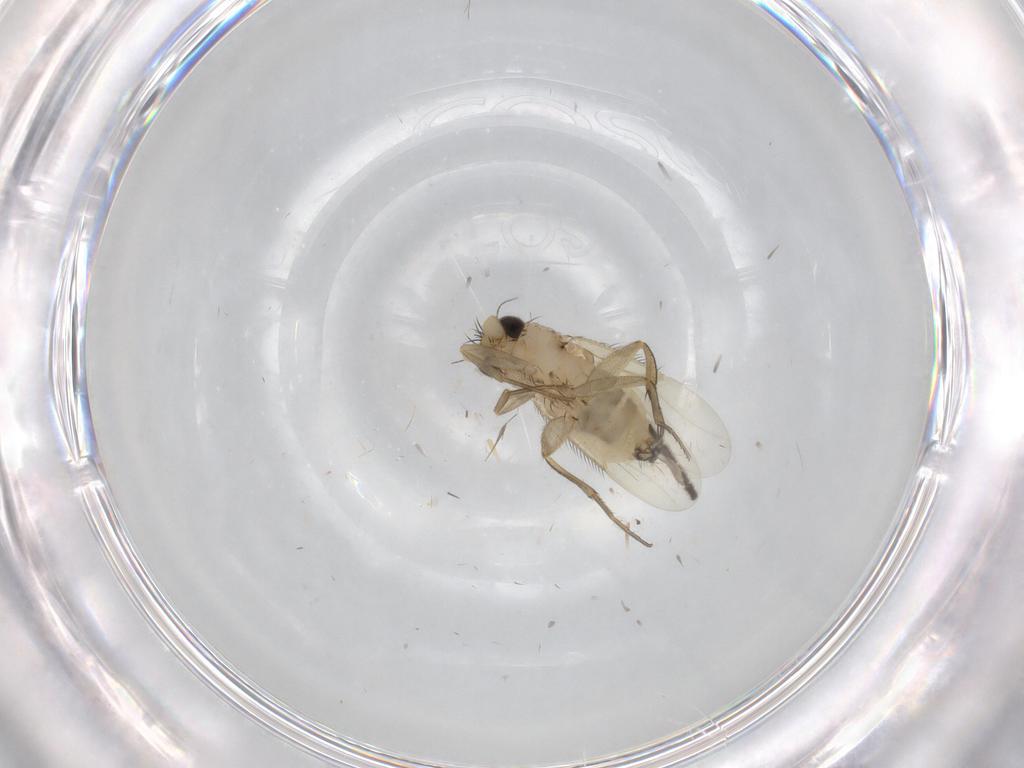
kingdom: Animalia
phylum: Arthropoda
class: Insecta
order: Diptera
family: Phoridae
